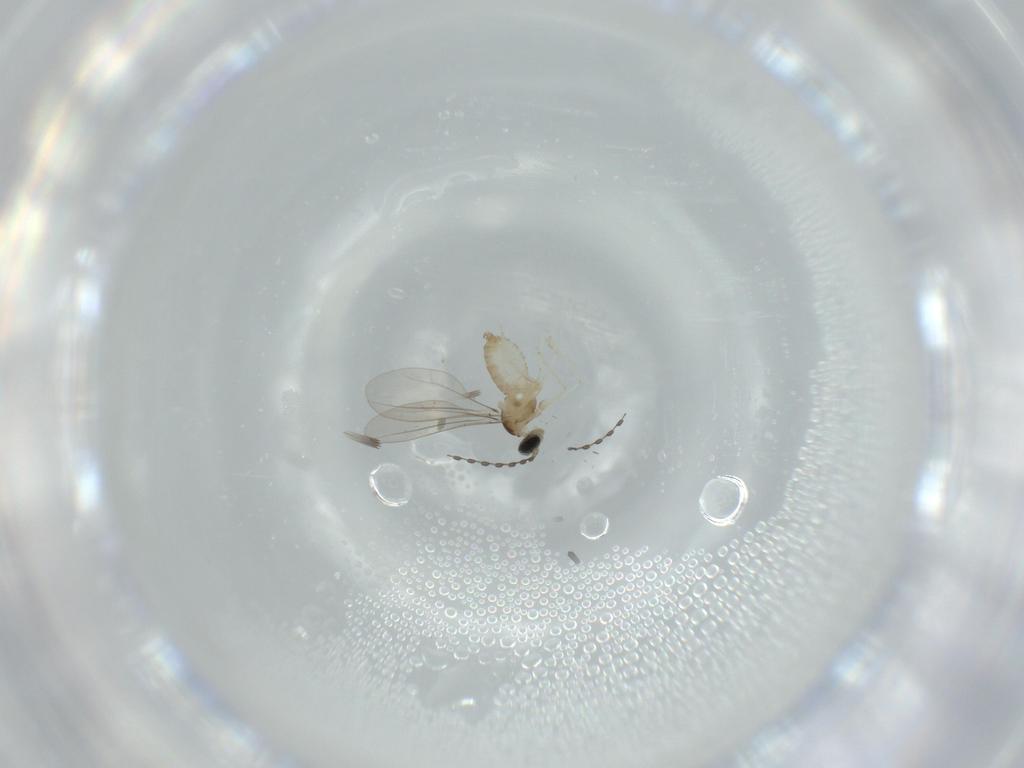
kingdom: Animalia
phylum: Arthropoda
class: Insecta
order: Diptera
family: Cecidomyiidae
